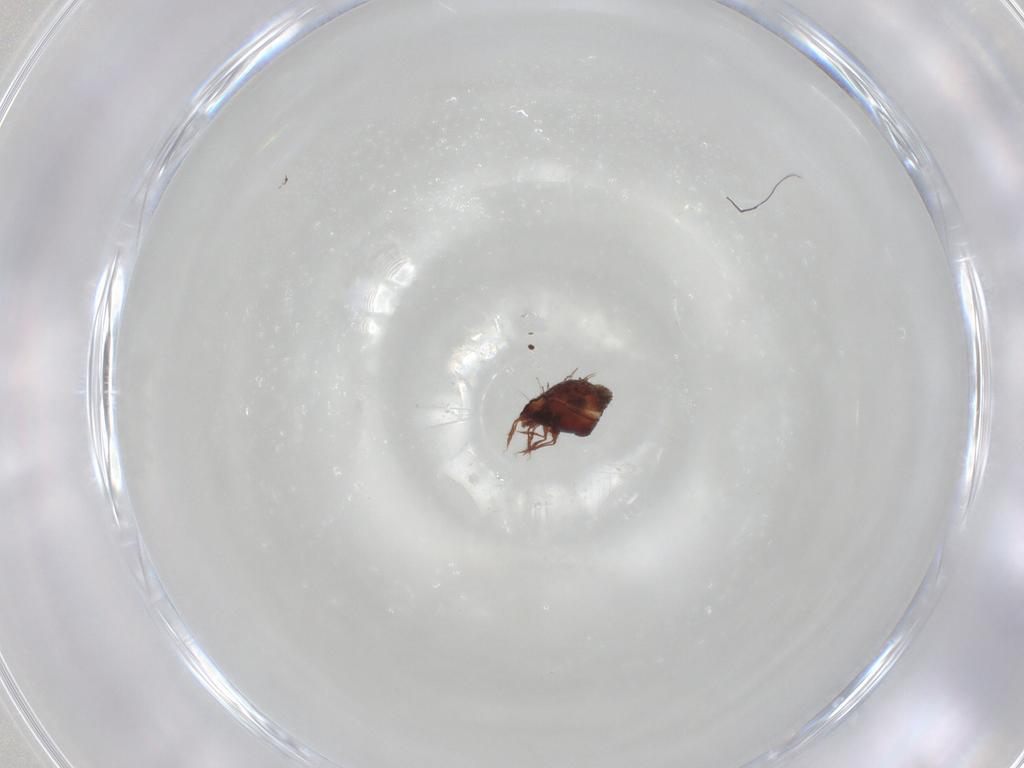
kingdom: Animalia
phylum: Arthropoda
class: Arachnida
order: Sarcoptiformes
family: Caloppiidae
